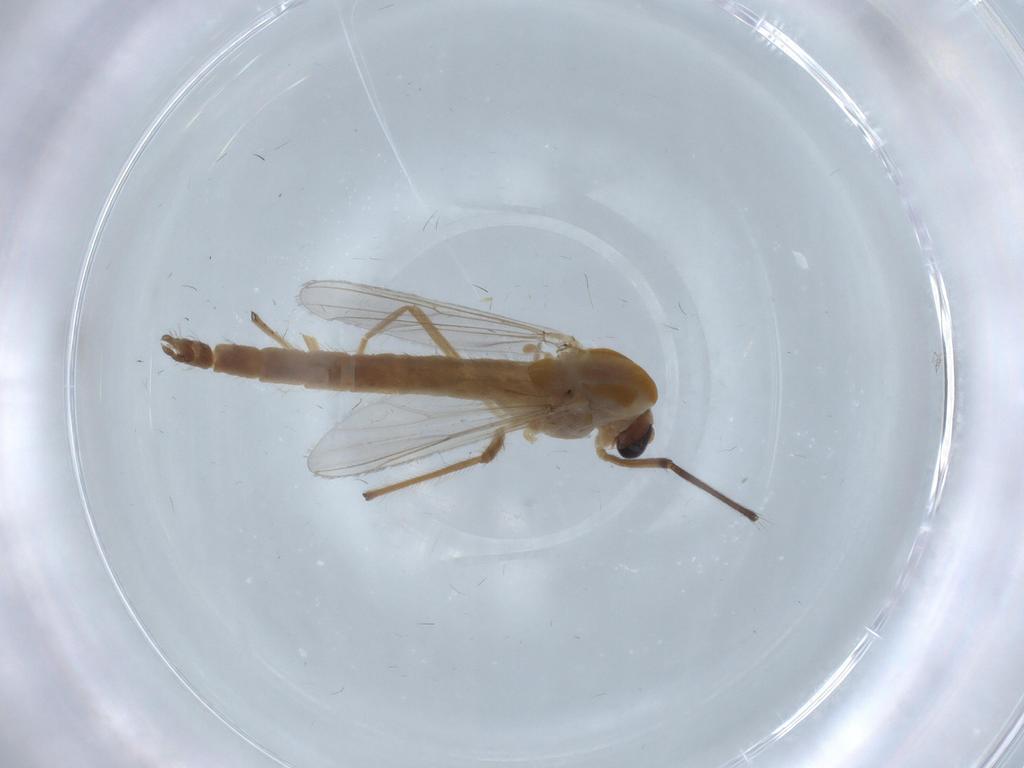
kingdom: Animalia
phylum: Arthropoda
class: Insecta
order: Diptera
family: Chironomidae
